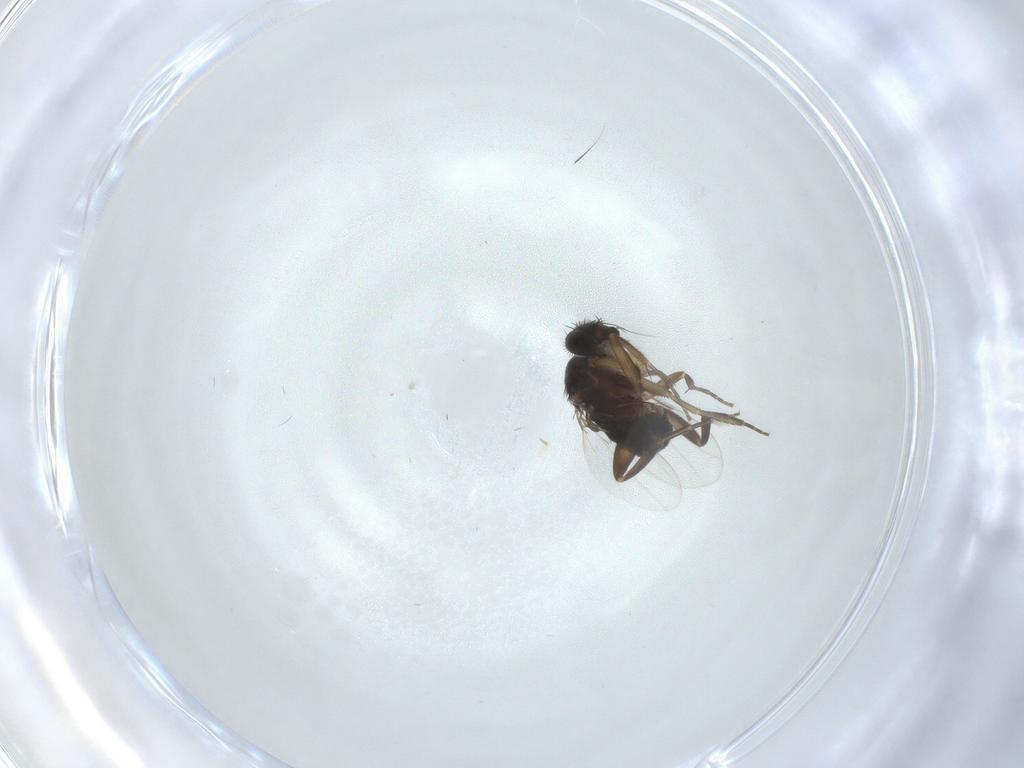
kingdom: Animalia
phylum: Arthropoda
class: Insecta
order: Diptera
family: Phoridae
